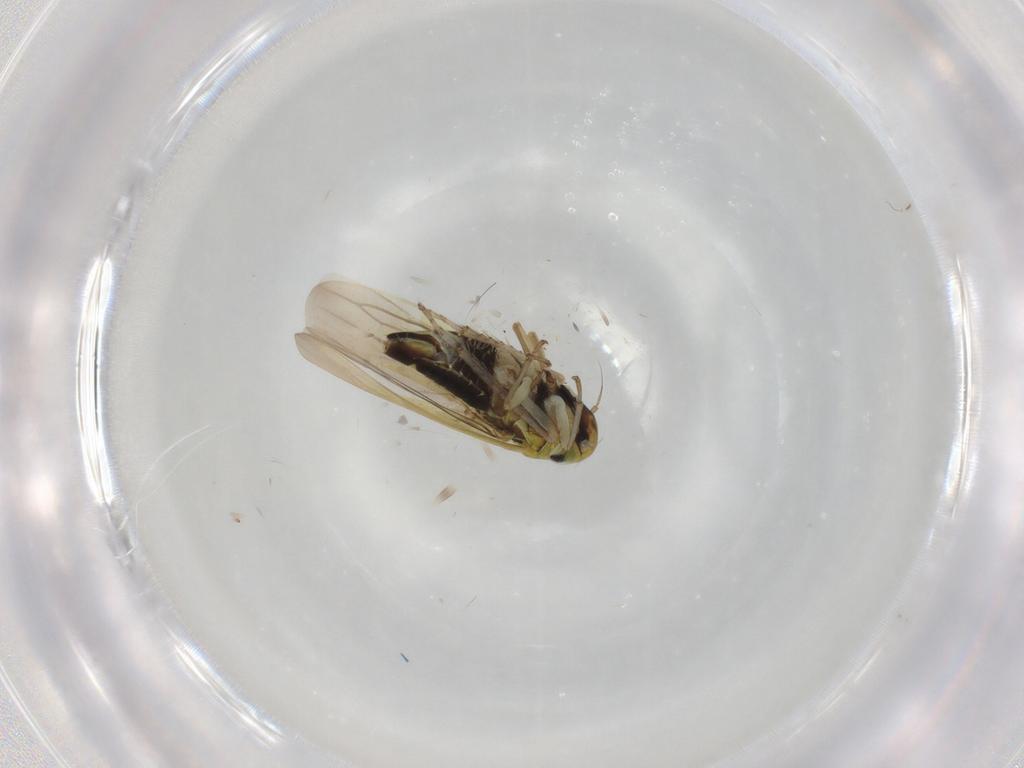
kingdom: Animalia
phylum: Arthropoda
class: Insecta
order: Hemiptera
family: Cicadellidae
